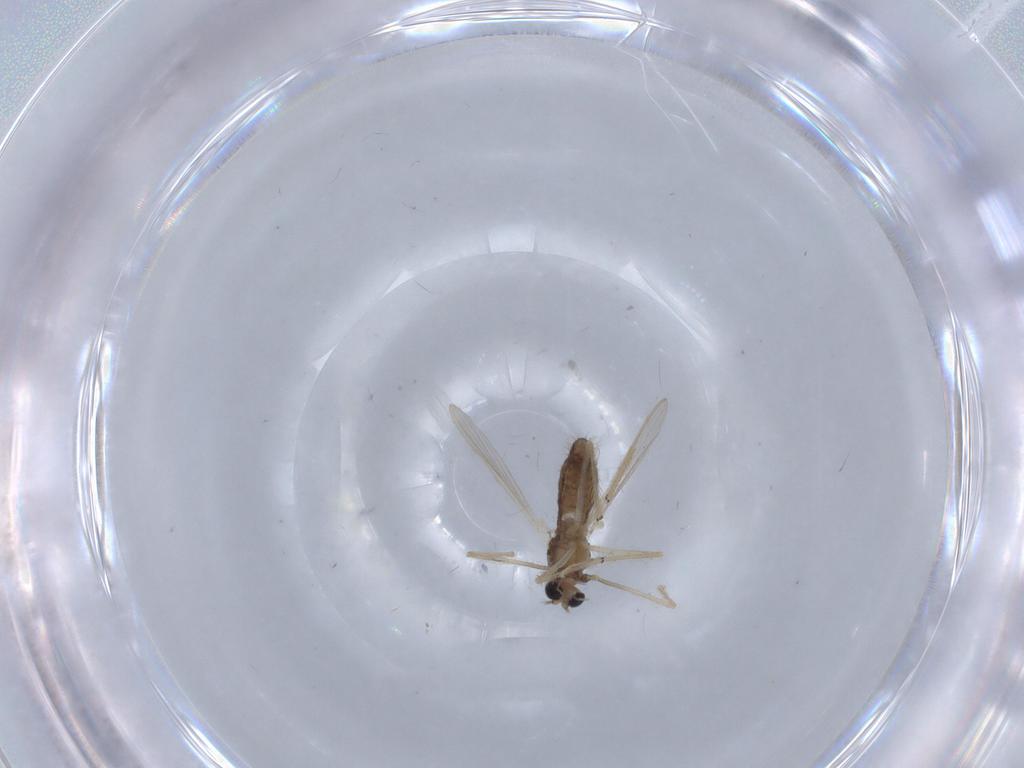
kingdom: Animalia
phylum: Arthropoda
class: Insecta
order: Diptera
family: Chironomidae
